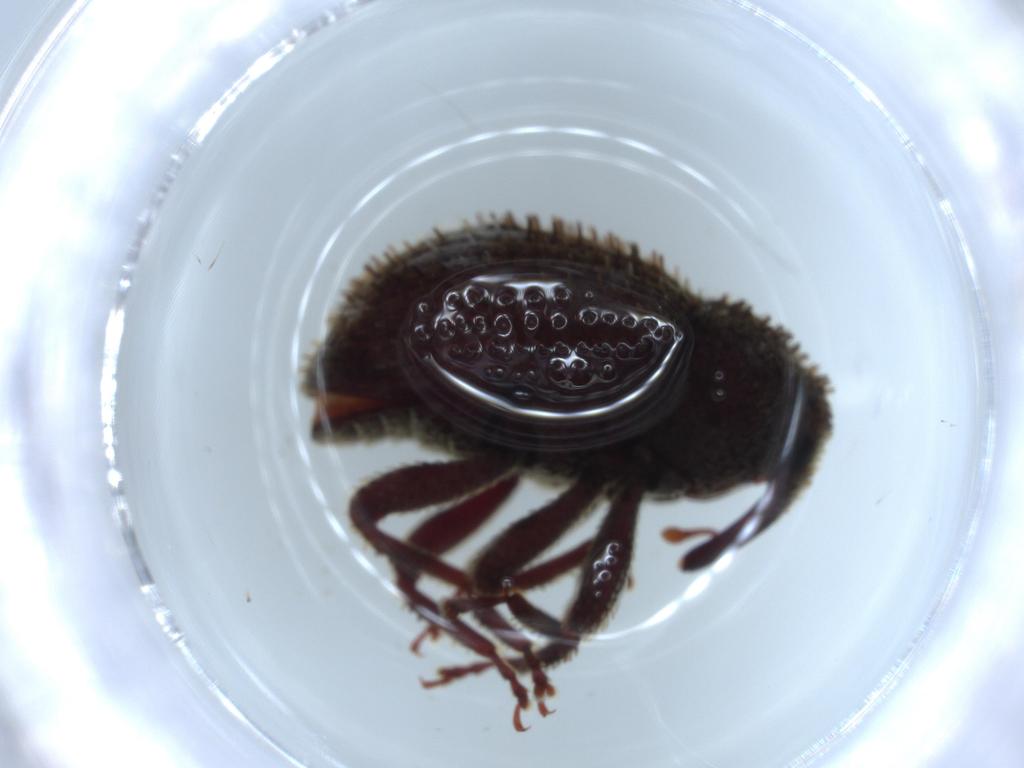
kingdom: Animalia
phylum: Arthropoda
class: Insecta
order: Coleoptera
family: Curculionidae
